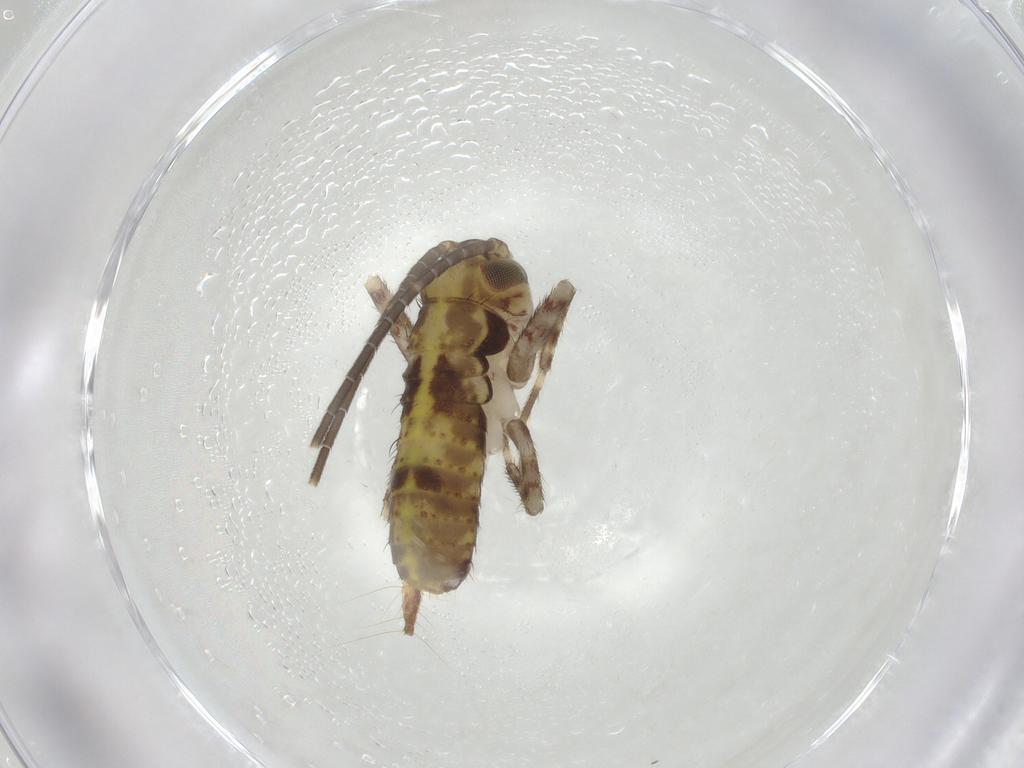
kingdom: Animalia
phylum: Arthropoda
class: Insecta
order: Orthoptera
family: Gryllidae
